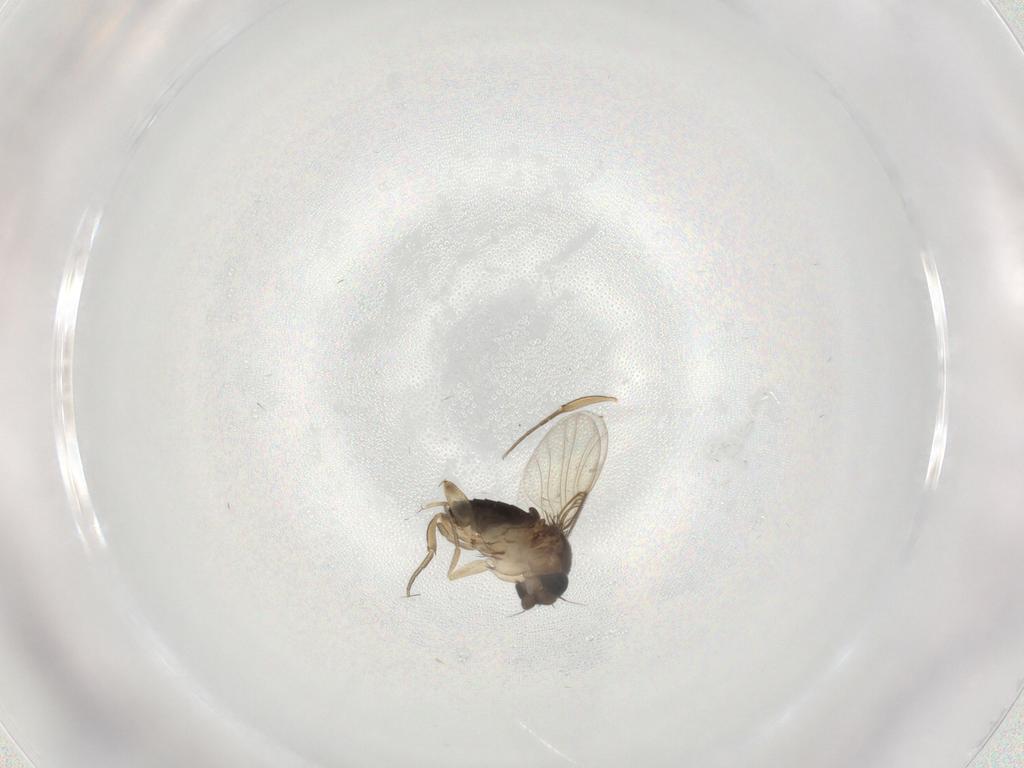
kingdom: Animalia
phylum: Arthropoda
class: Insecta
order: Diptera
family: Phoridae
